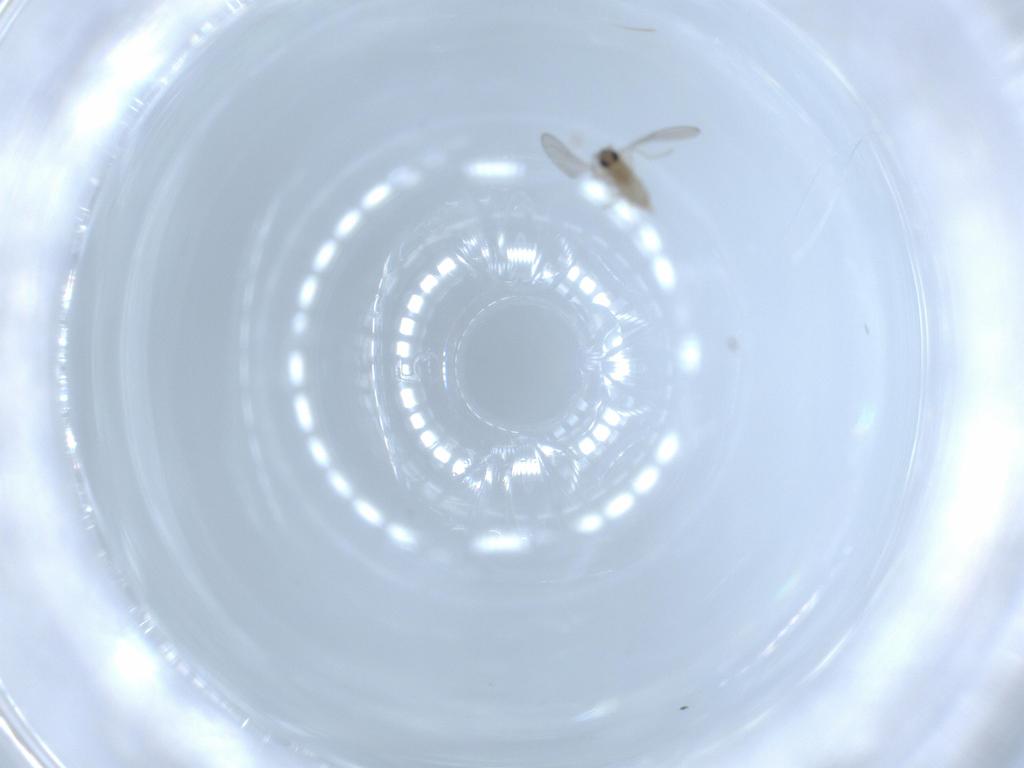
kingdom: Animalia
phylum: Arthropoda
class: Insecta
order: Diptera
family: Cecidomyiidae
